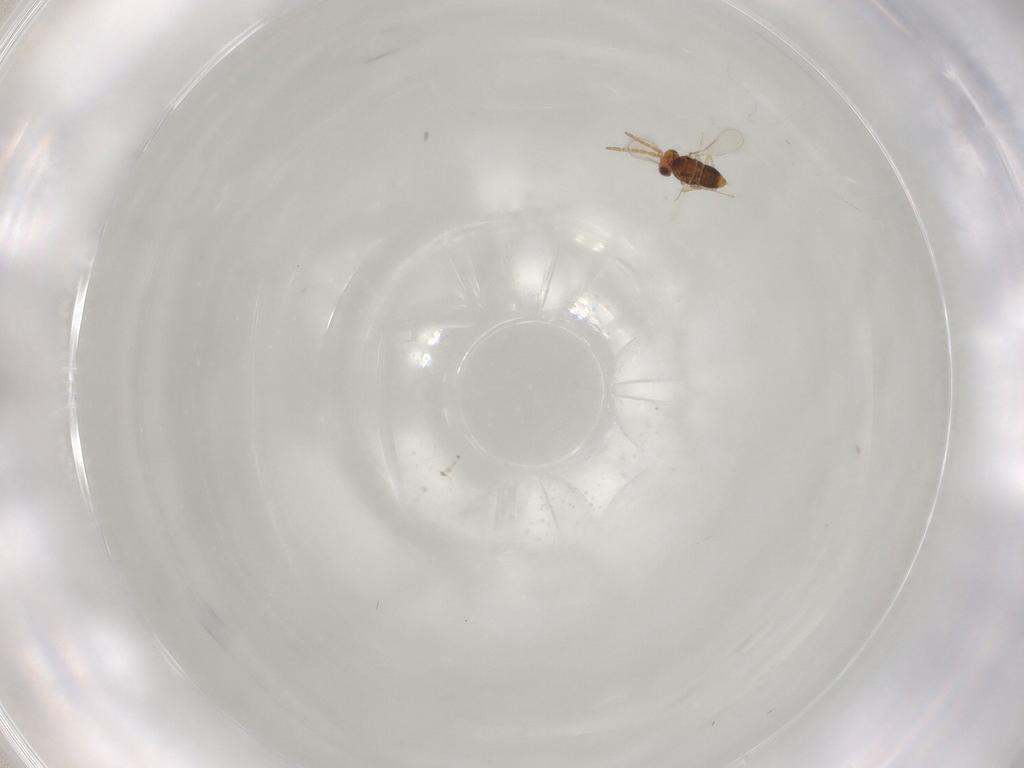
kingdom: Animalia
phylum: Arthropoda
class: Insecta
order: Hymenoptera
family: Aphelinidae
